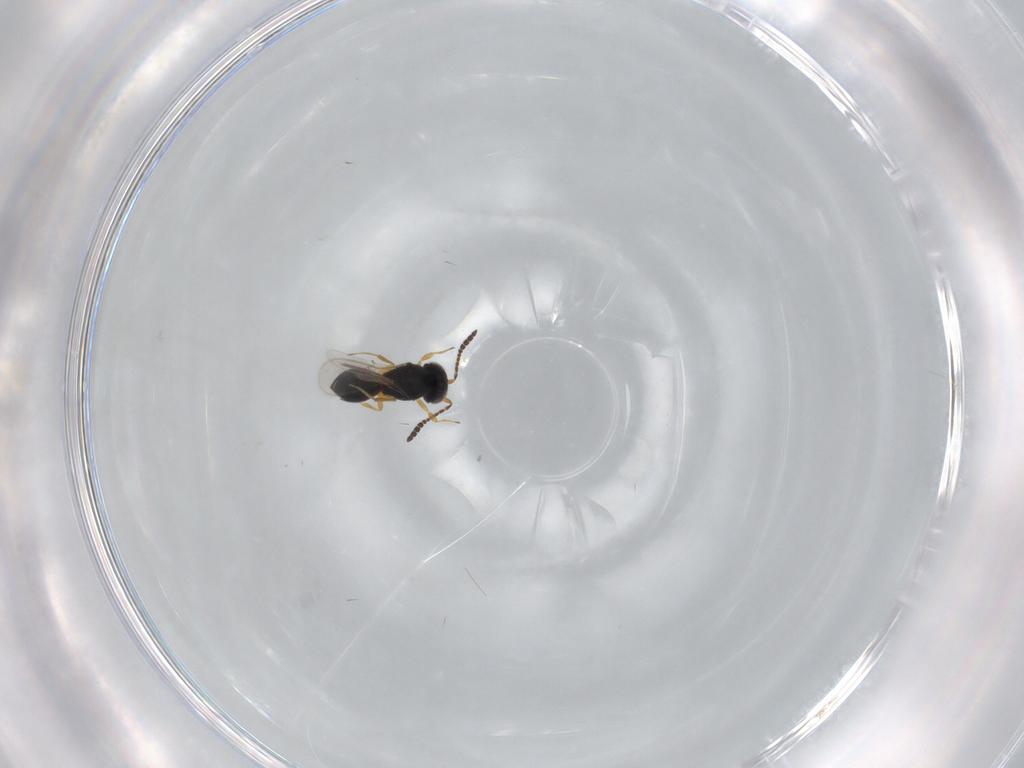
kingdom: Animalia
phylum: Arthropoda
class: Insecta
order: Hymenoptera
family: Scelionidae
